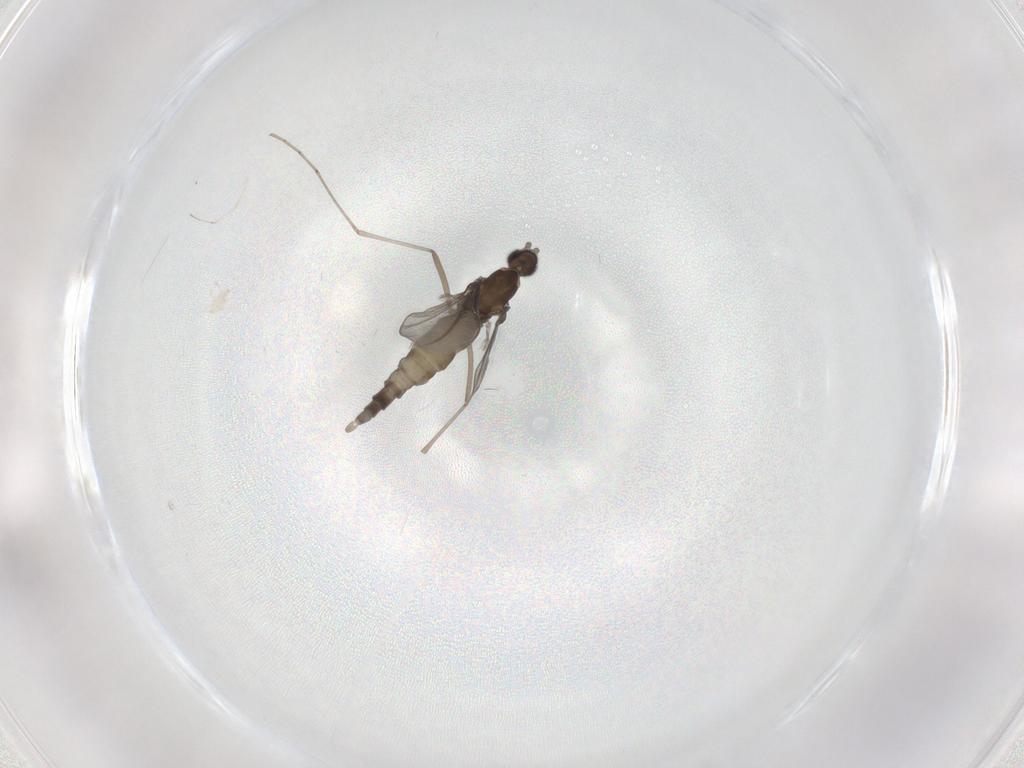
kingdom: Animalia
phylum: Arthropoda
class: Insecta
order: Diptera
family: Cecidomyiidae
